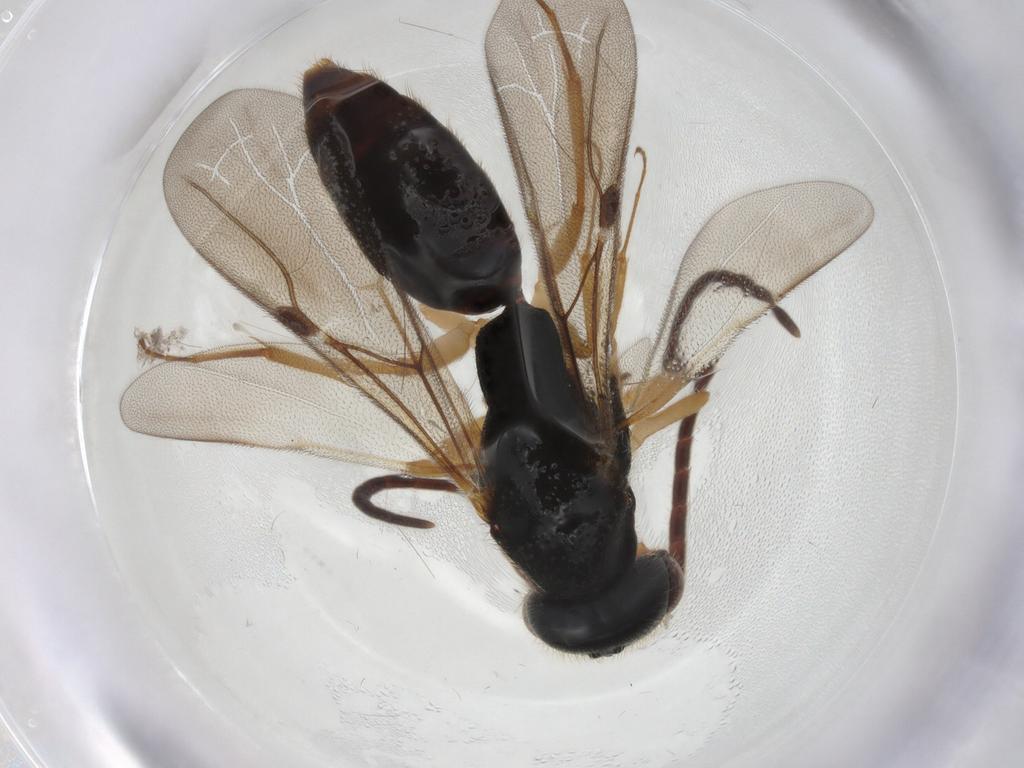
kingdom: Animalia
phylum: Arthropoda
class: Insecta
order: Hymenoptera
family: Bethylidae
